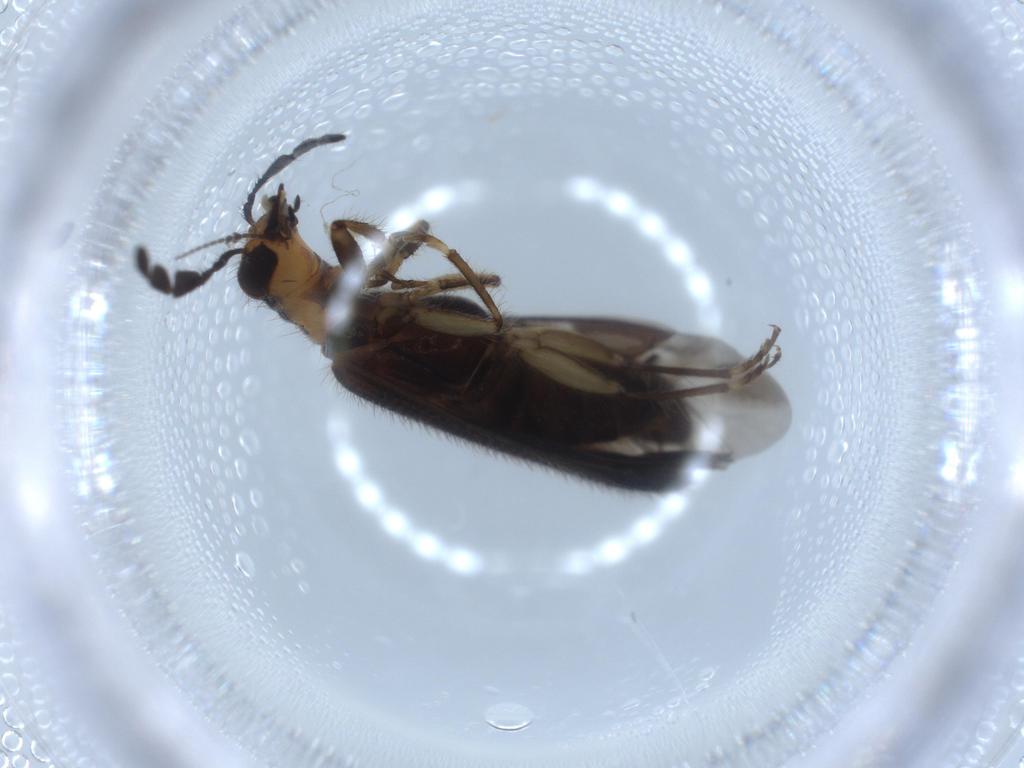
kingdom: Animalia
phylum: Arthropoda
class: Insecta
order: Coleoptera
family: Cleridae
